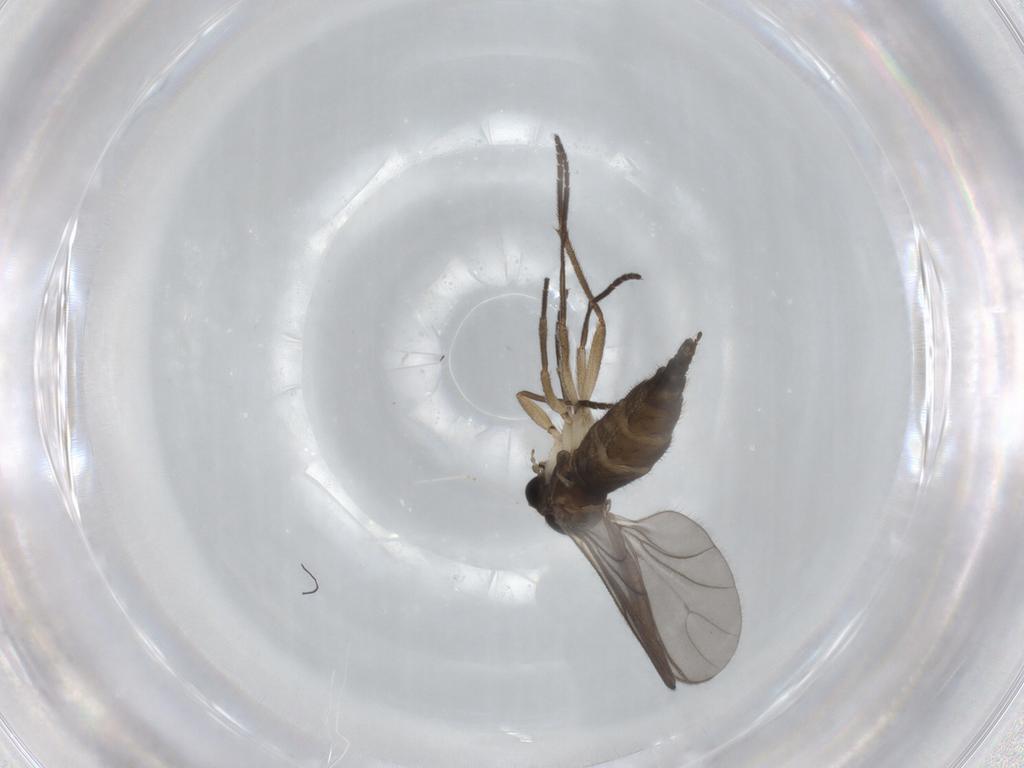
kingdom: Animalia
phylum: Arthropoda
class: Insecta
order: Diptera
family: Sciaridae
